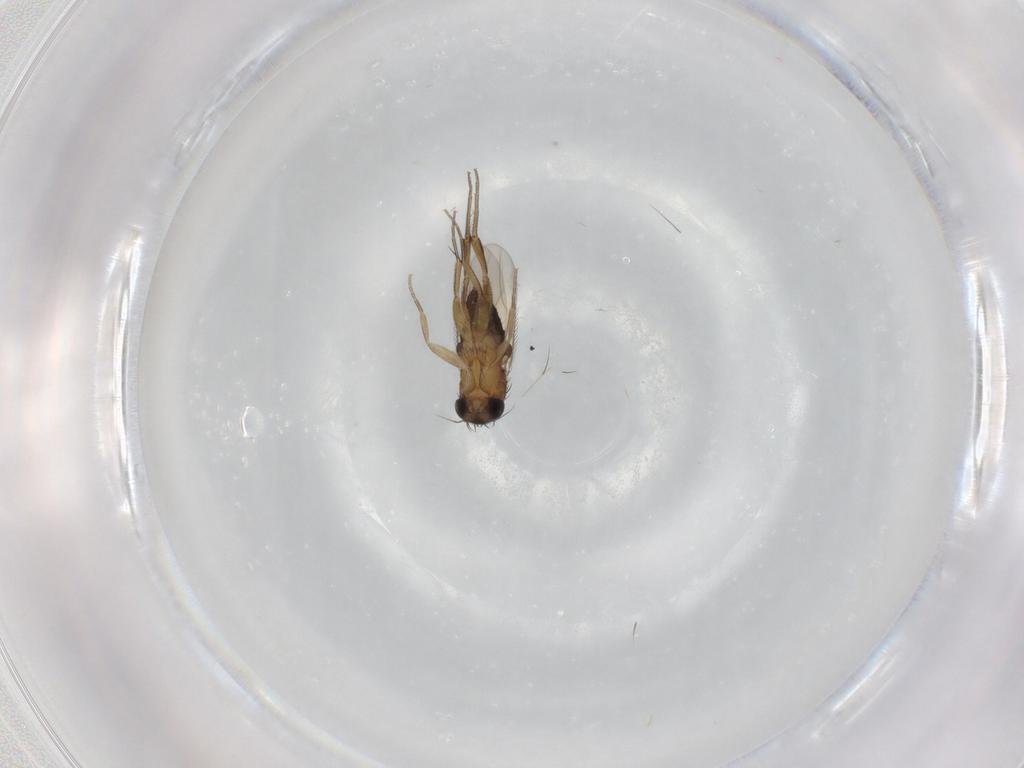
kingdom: Animalia
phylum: Arthropoda
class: Insecta
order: Diptera
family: Phoridae
